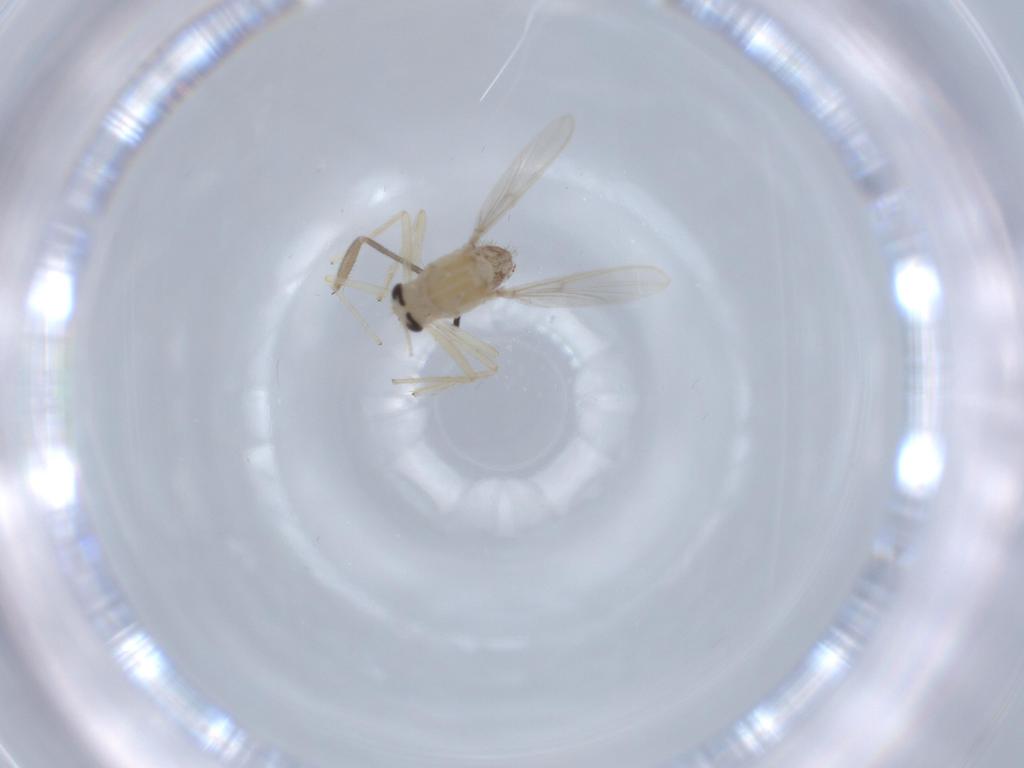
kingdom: Animalia
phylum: Arthropoda
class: Insecta
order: Diptera
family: Chironomidae
